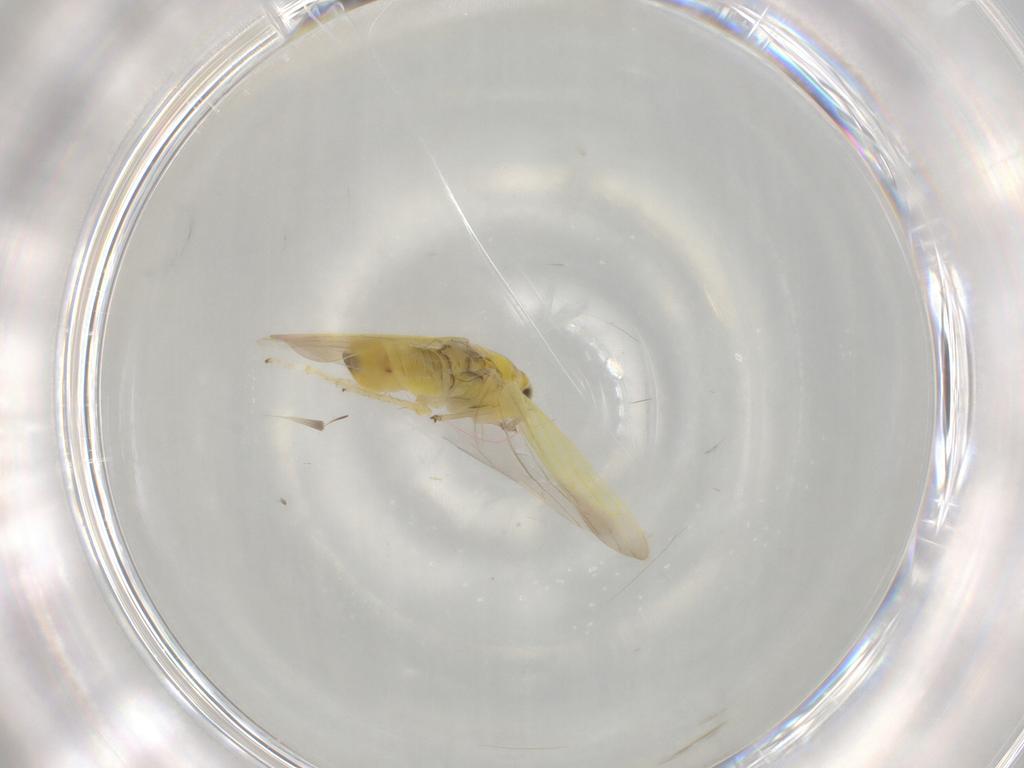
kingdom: Animalia
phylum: Arthropoda
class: Insecta
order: Hemiptera
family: Cicadellidae
